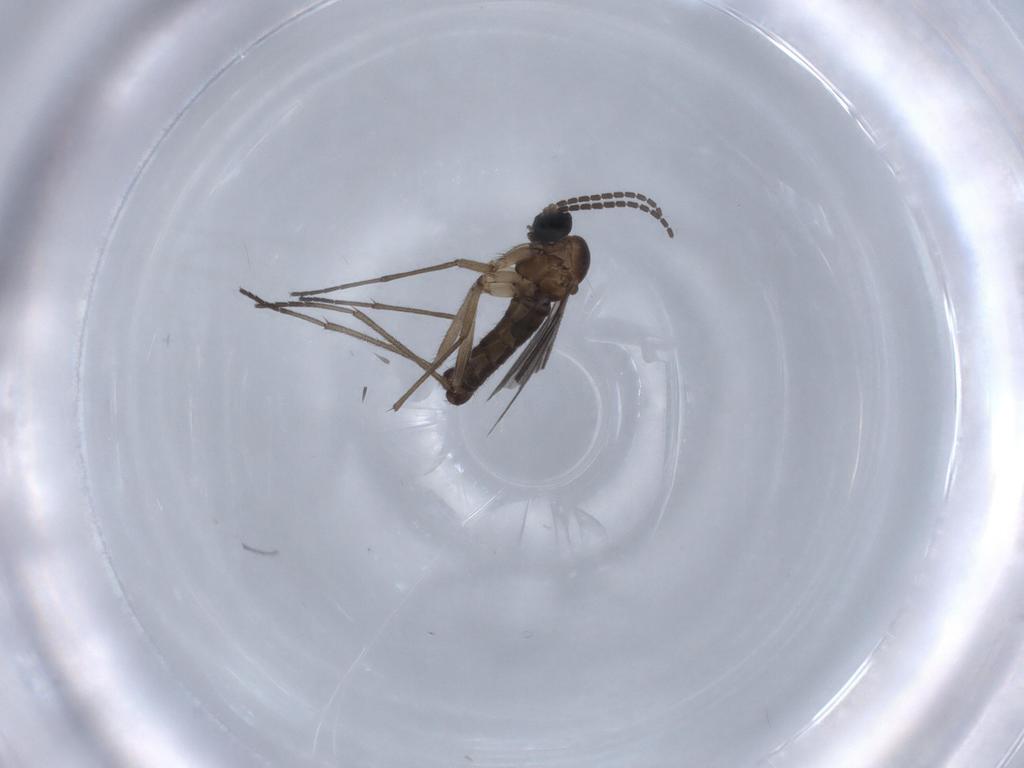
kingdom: Animalia
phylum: Arthropoda
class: Insecta
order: Diptera
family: Sciaridae
